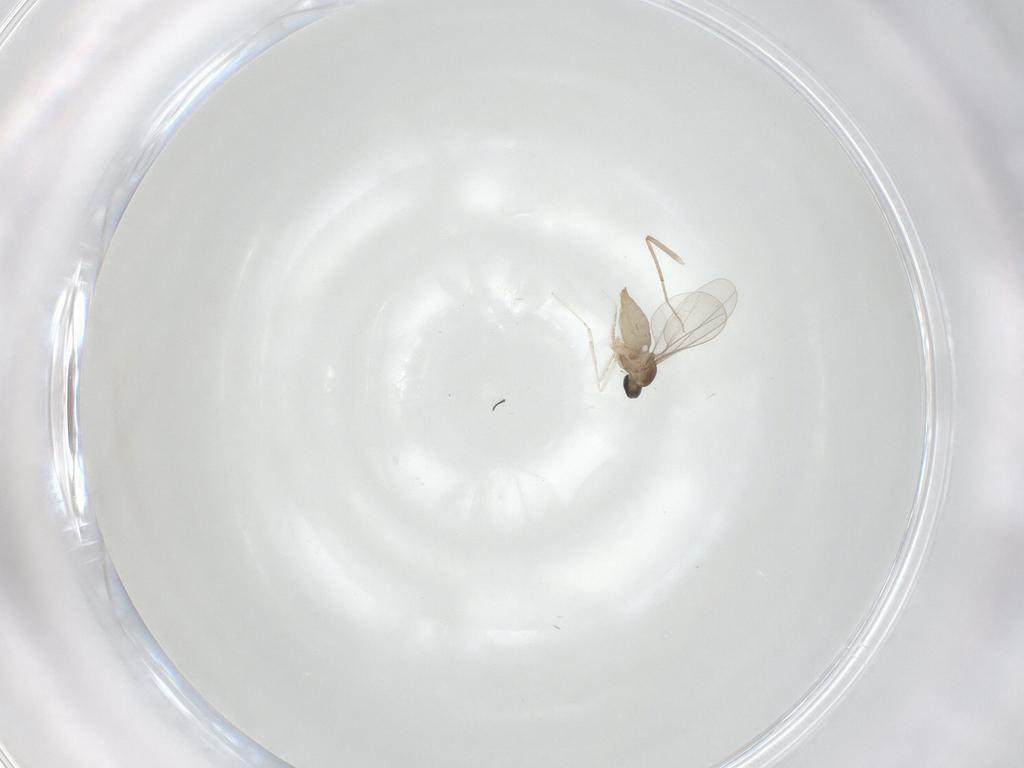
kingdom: Animalia
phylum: Arthropoda
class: Insecta
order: Diptera
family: Cecidomyiidae
